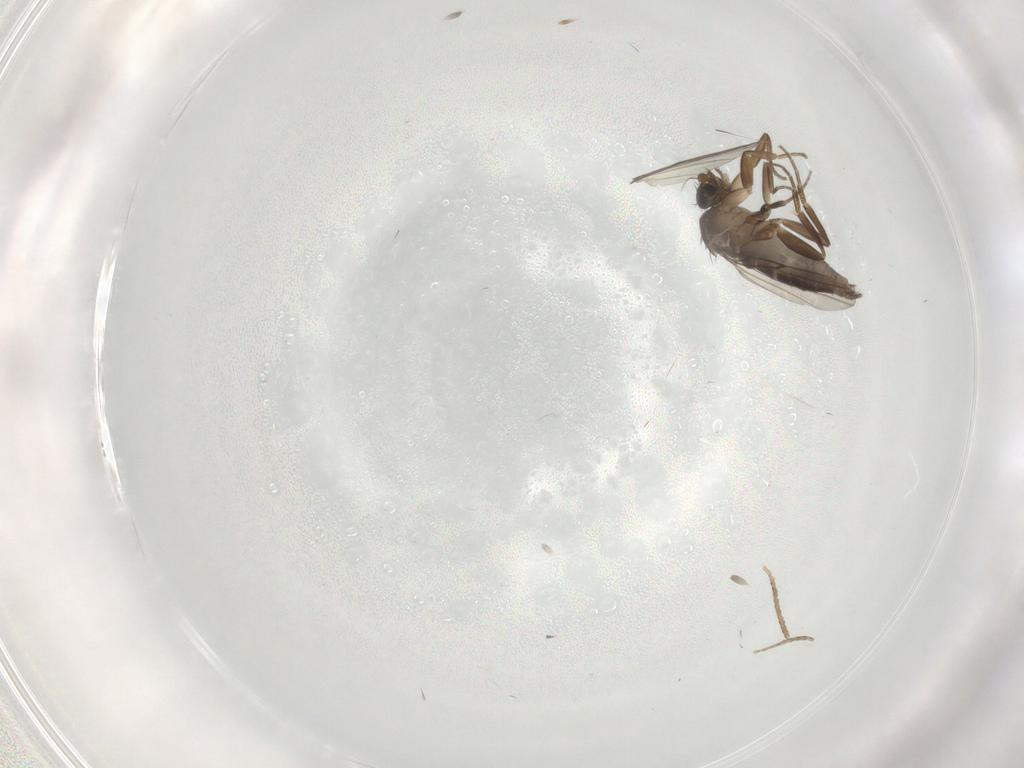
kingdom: Animalia
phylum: Arthropoda
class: Insecta
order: Diptera
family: Phoridae
